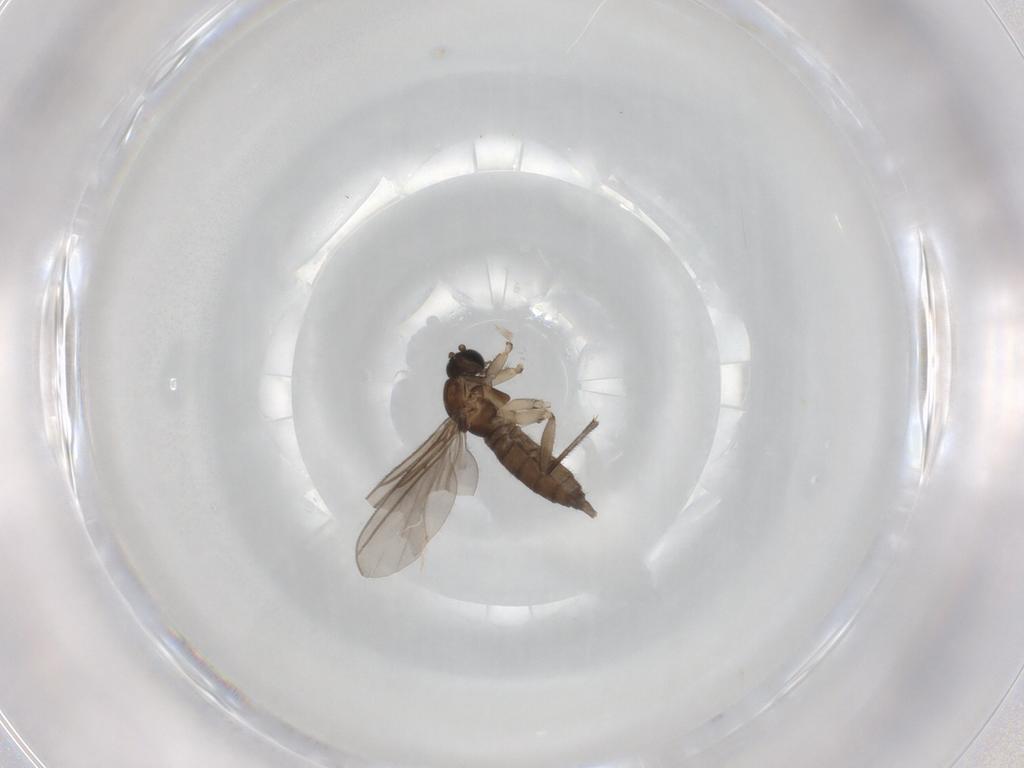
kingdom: Animalia
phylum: Arthropoda
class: Insecta
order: Diptera
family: Sciaridae
